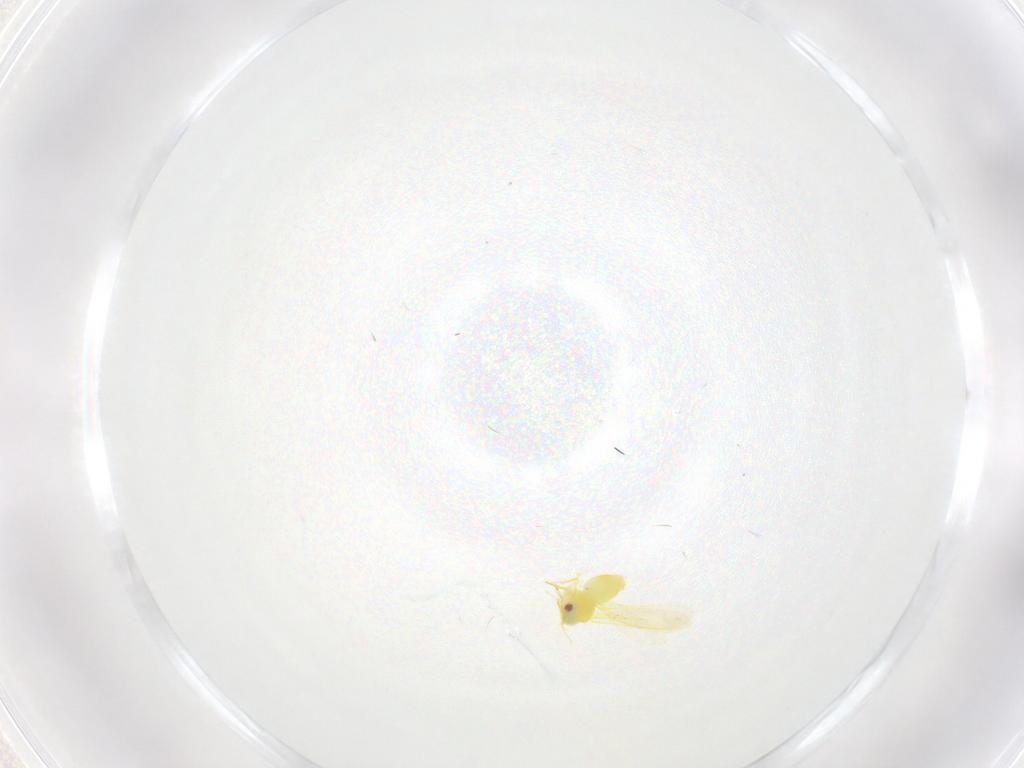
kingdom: Animalia
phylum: Arthropoda
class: Insecta
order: Hemiptera
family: Cicadellidae
